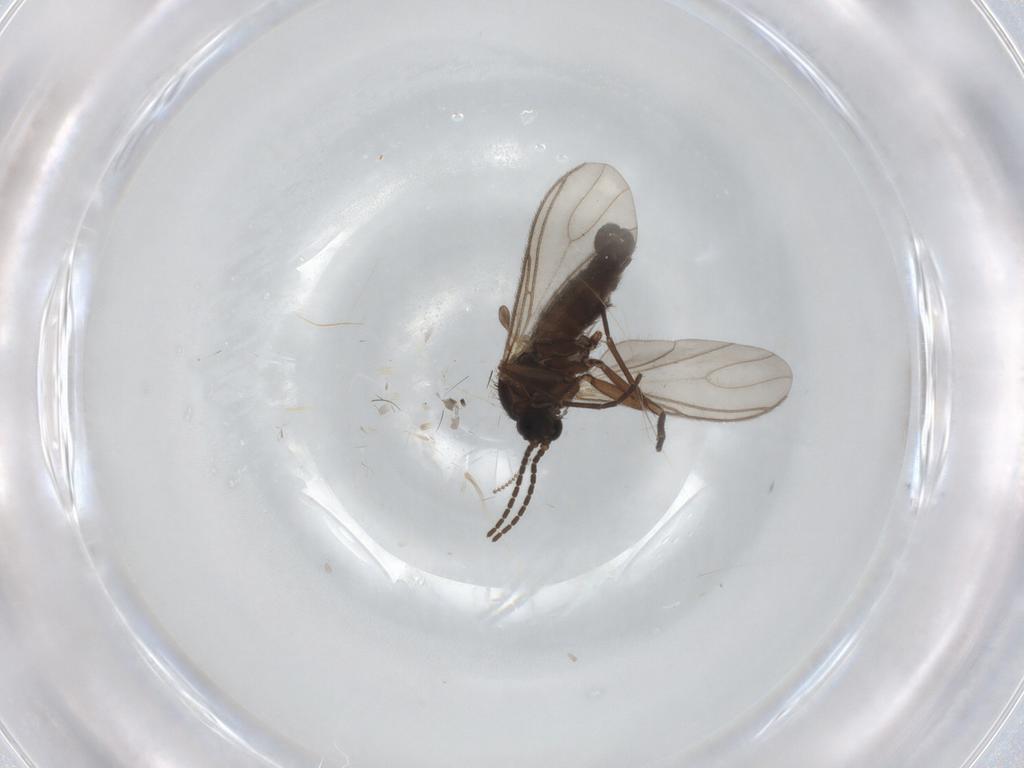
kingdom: Animalia
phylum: Arthropoda
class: Insecta
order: Diptera
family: Sciaridae
